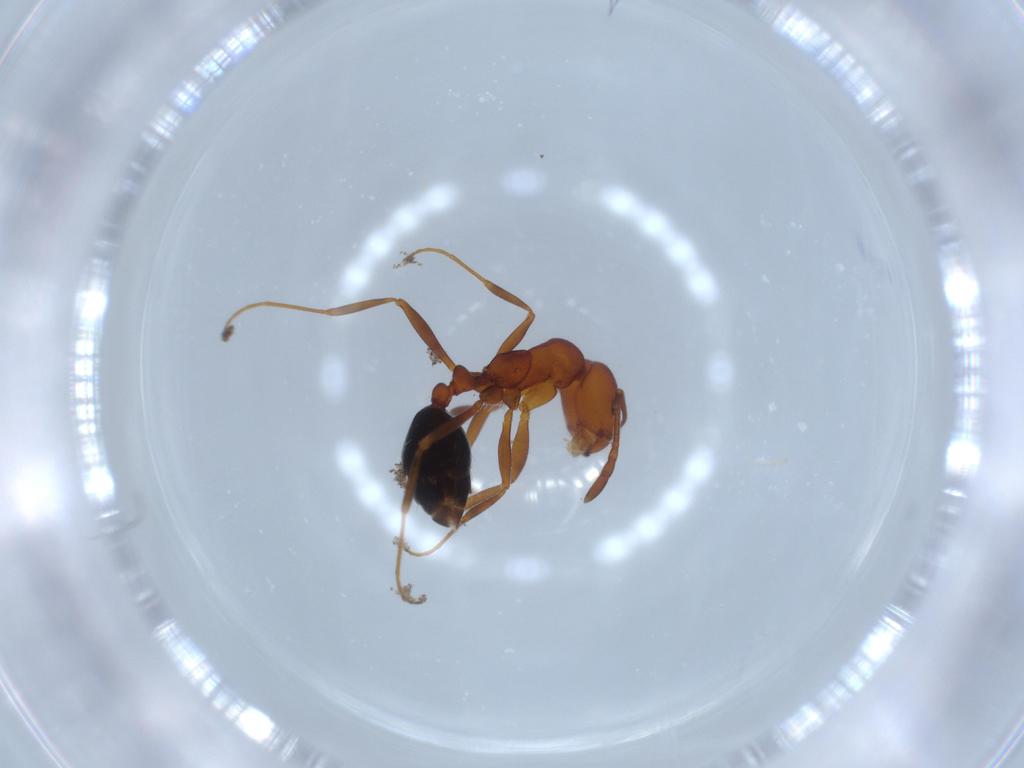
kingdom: Animalia
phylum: Arthropoda
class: Insecta
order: Hymenoptera
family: Formicidae
